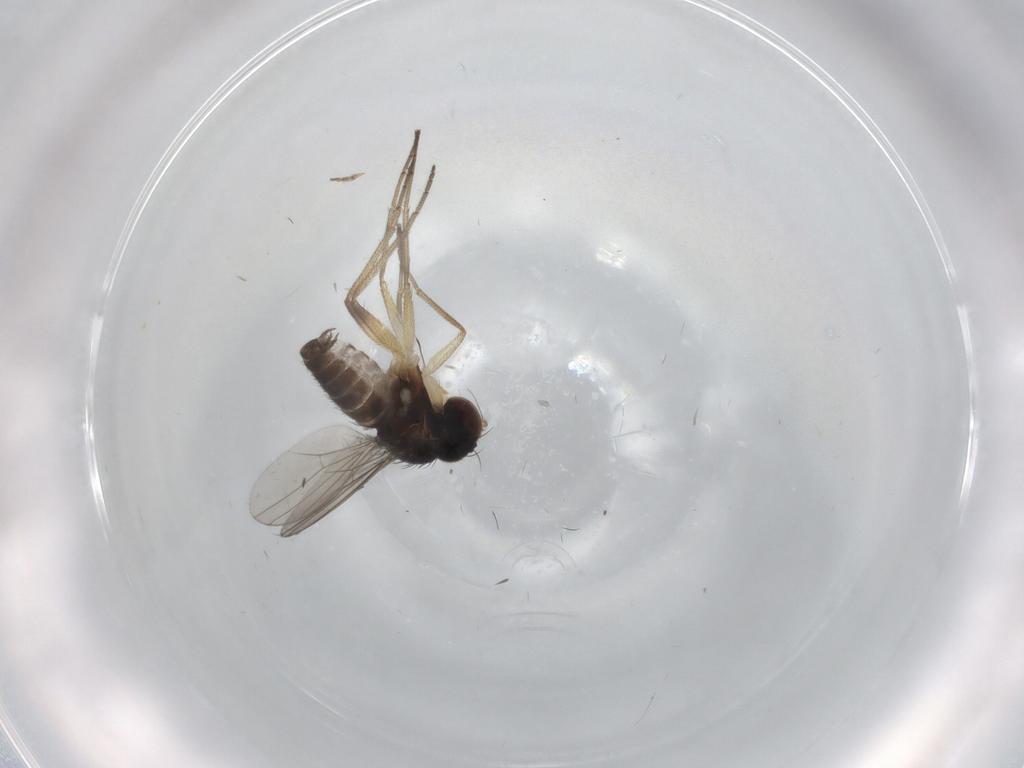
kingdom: Animalia
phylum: Arthropoda
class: Insecta
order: Diptera
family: Dolichopodidae
